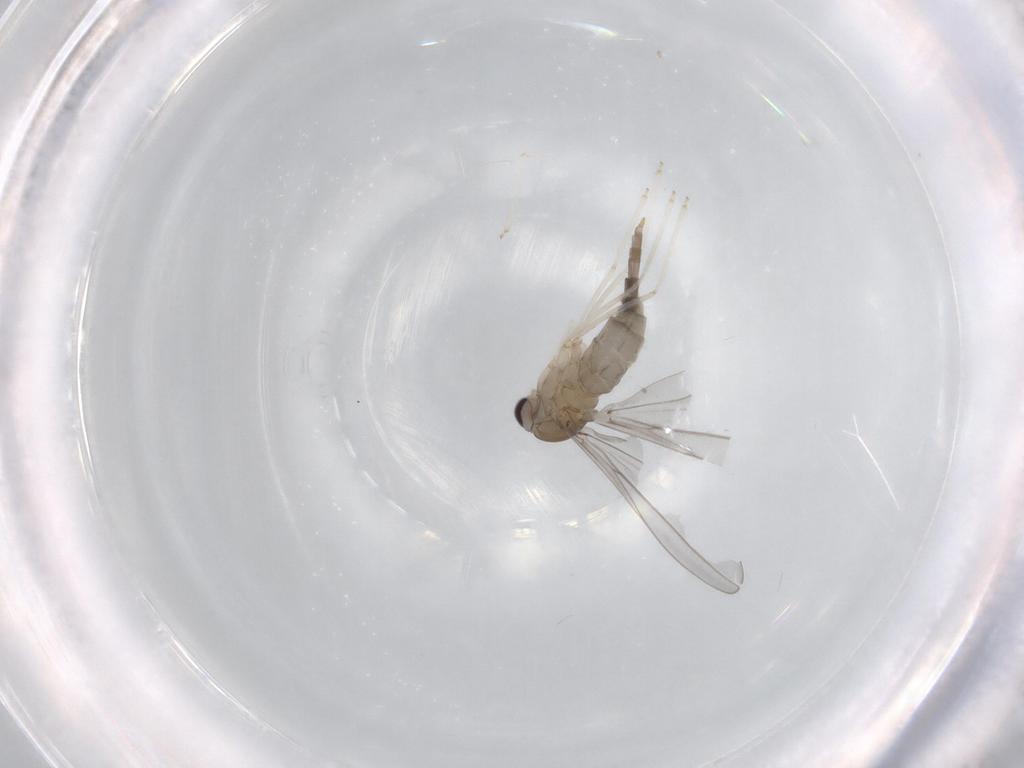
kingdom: Animalia
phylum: Arthropoda
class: Insecta
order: Diptera
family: Cecidomyiidae
